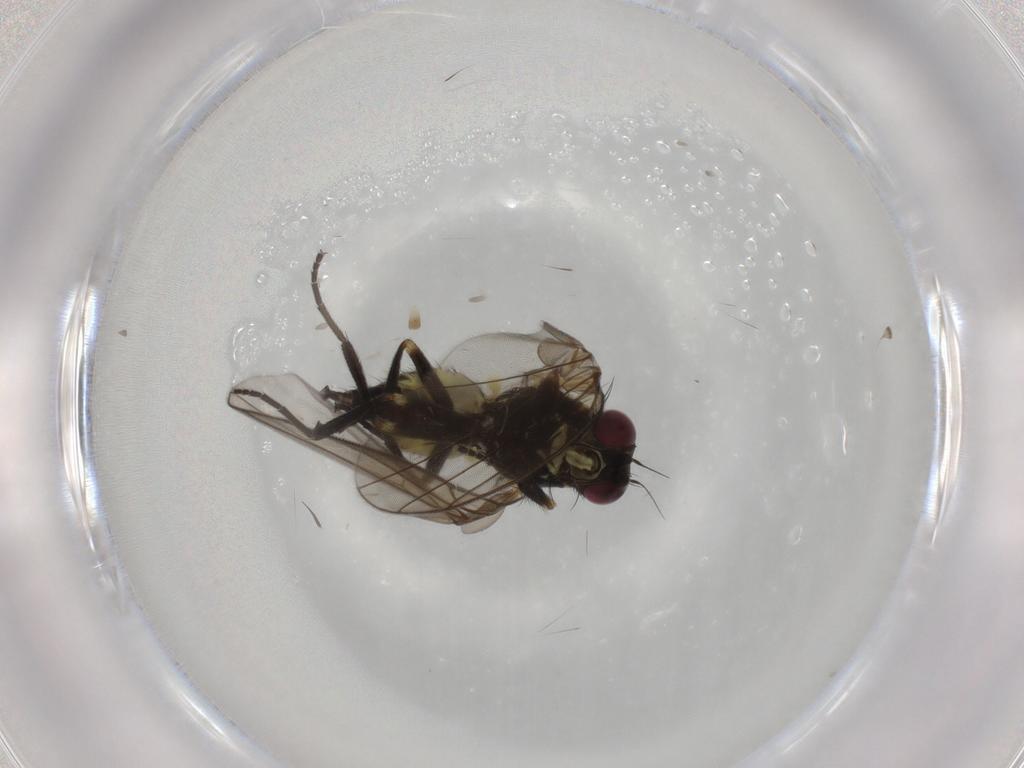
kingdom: Animalia
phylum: Arthropoda
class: Insecta
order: Diptera
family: Agromyzidae
